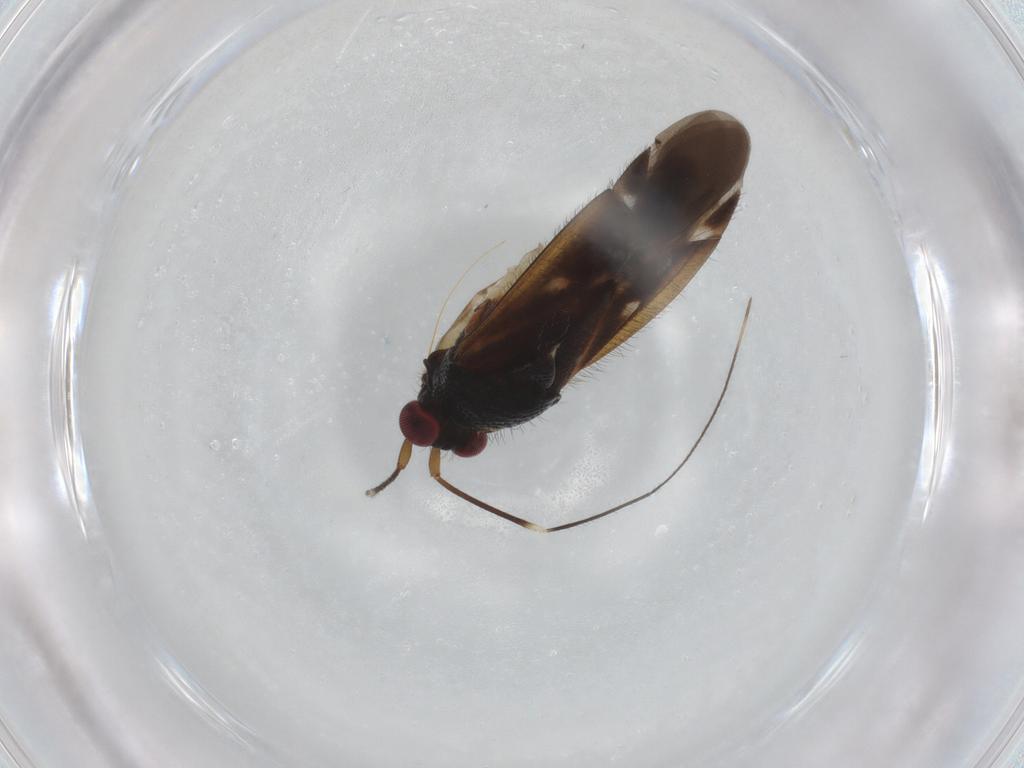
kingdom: Animalia
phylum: Arthropoda
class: Insecta
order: Hemiptera
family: Miridae
